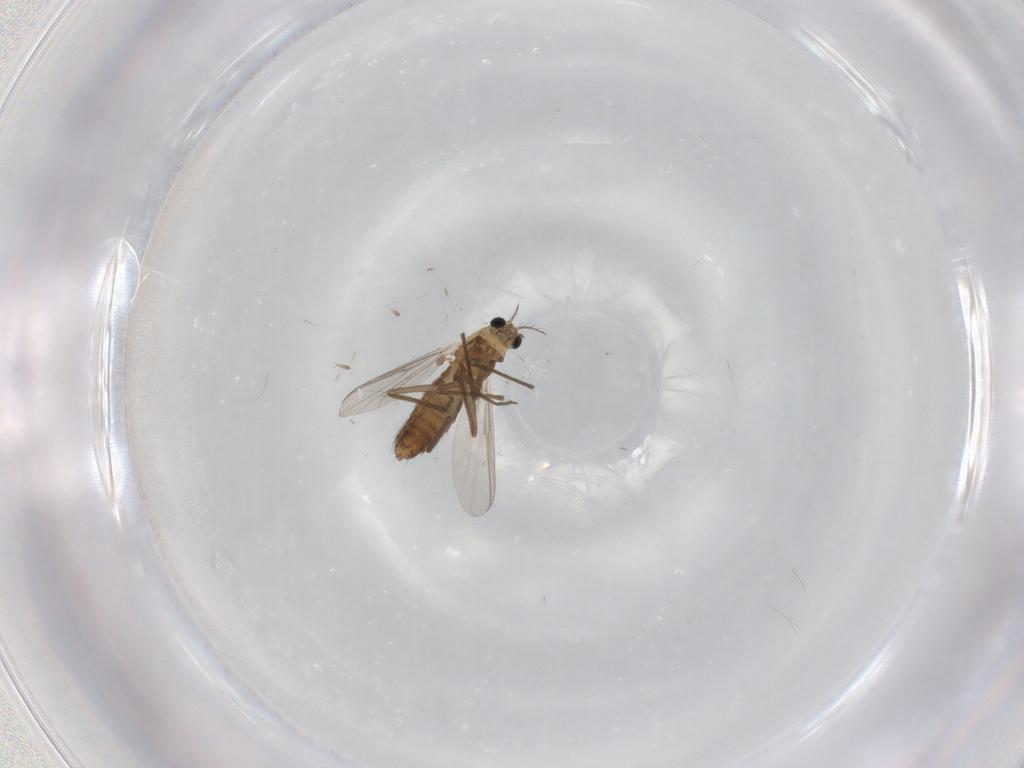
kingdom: Animalia
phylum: Arthropoda
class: Insecta
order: Diptera
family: Chironomidae
